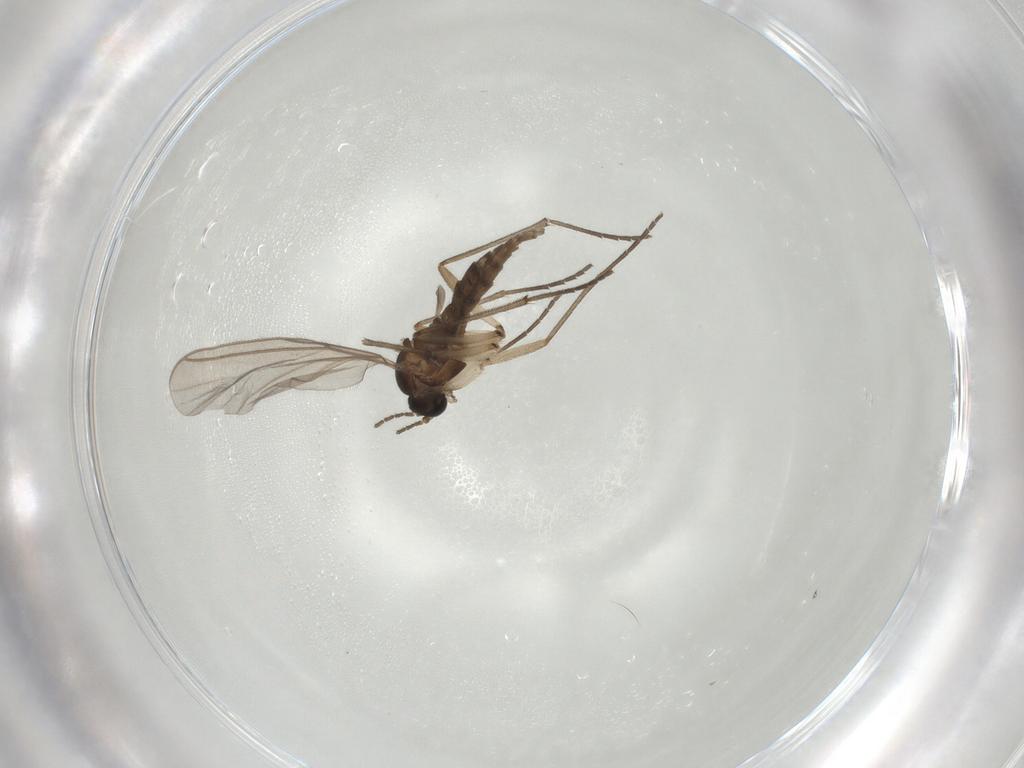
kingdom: Animalia
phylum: Arthropoda
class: Insecta
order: Diptera
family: Sciaridae
